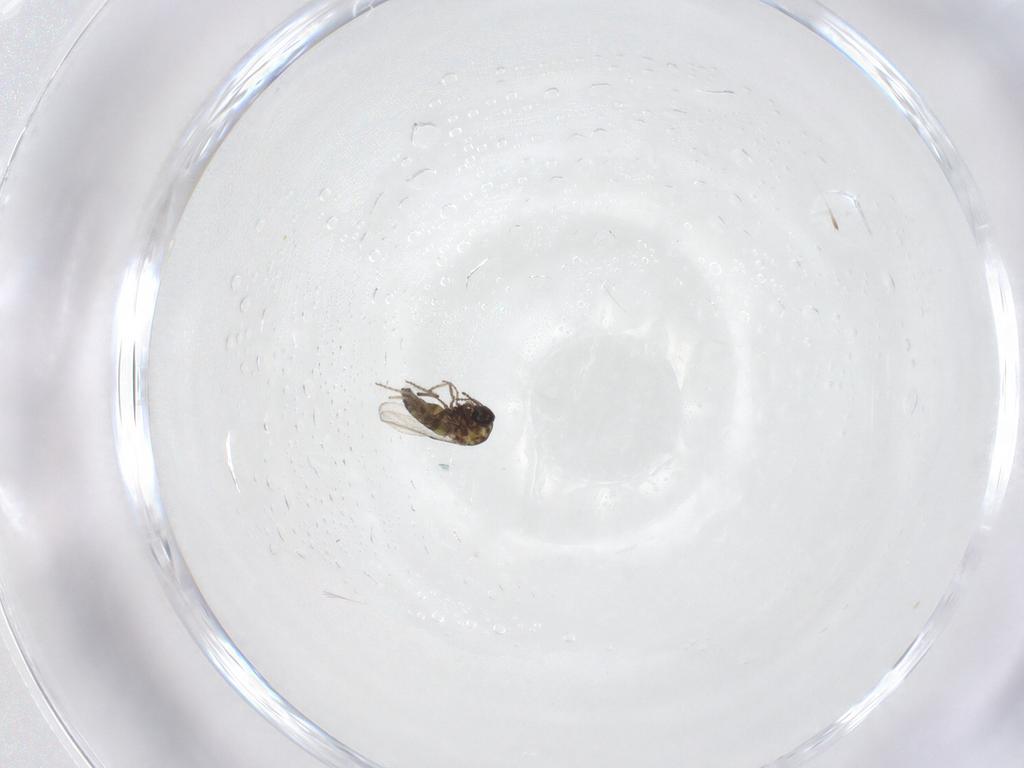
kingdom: Animalia
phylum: Arthropoda
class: Insecta
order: Diptera
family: Ceratopogonidae
